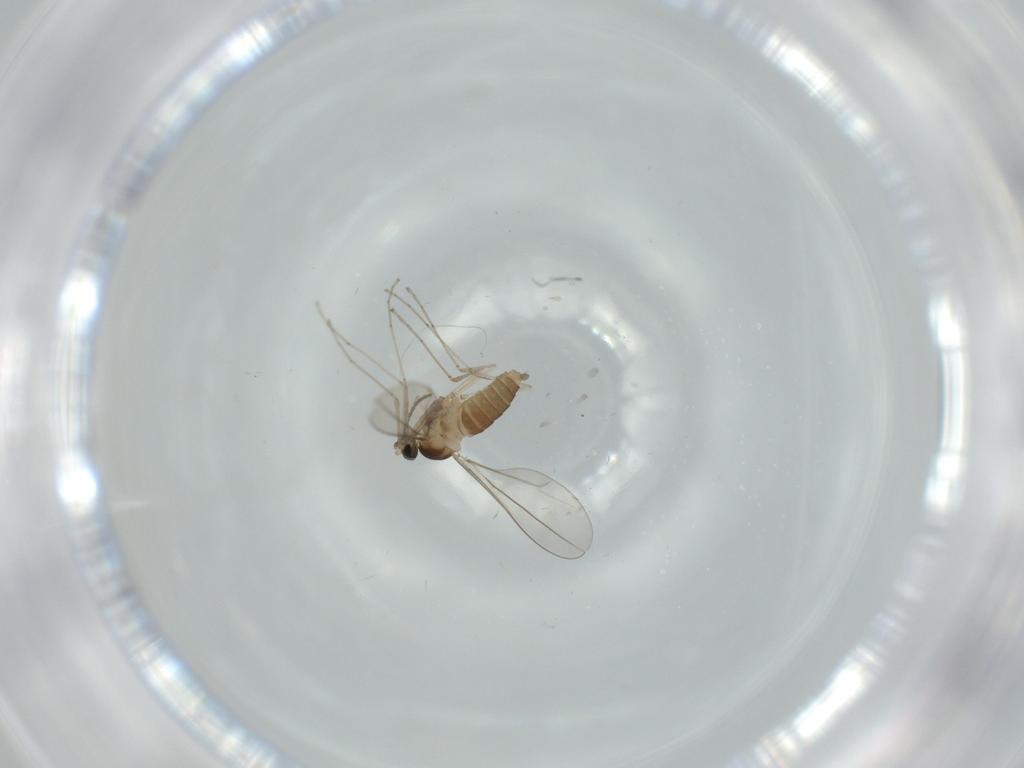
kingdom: Animalia
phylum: Arthropoda
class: Insecta
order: Diptera
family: Cecidomyiidae
